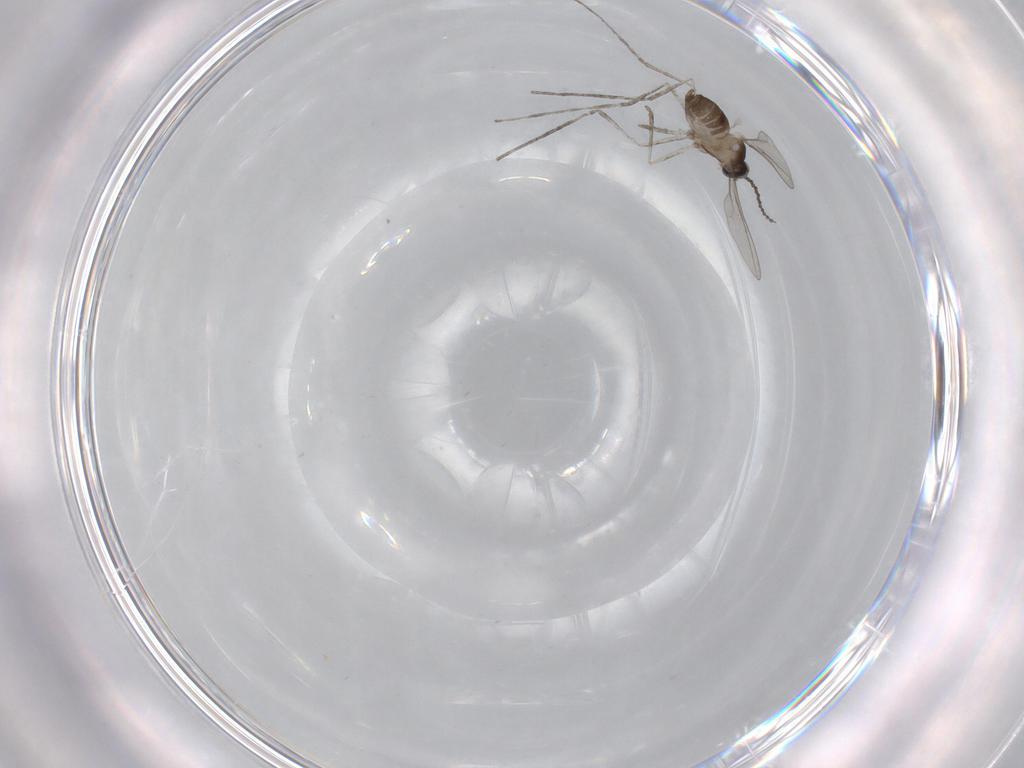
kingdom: Animalia
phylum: Arthropoda
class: Insecta
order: Diptera
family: Cecidomyiidae
